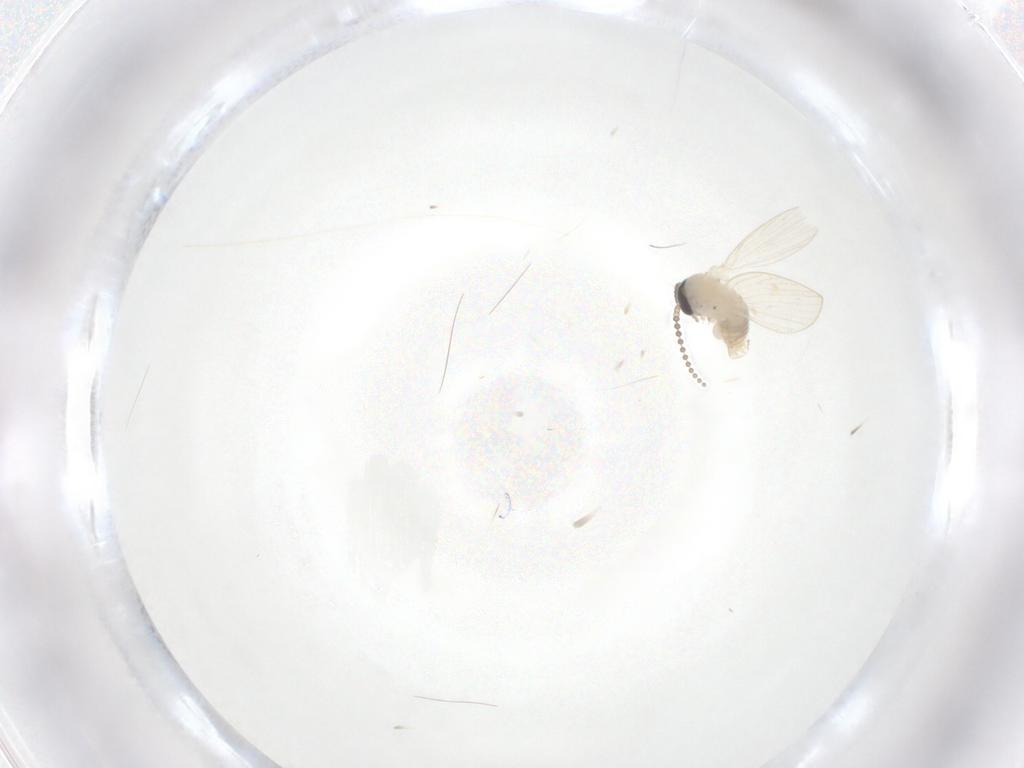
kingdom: Animalia
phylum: Arthropoda
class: Insecta
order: Diptera
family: Phoridae
